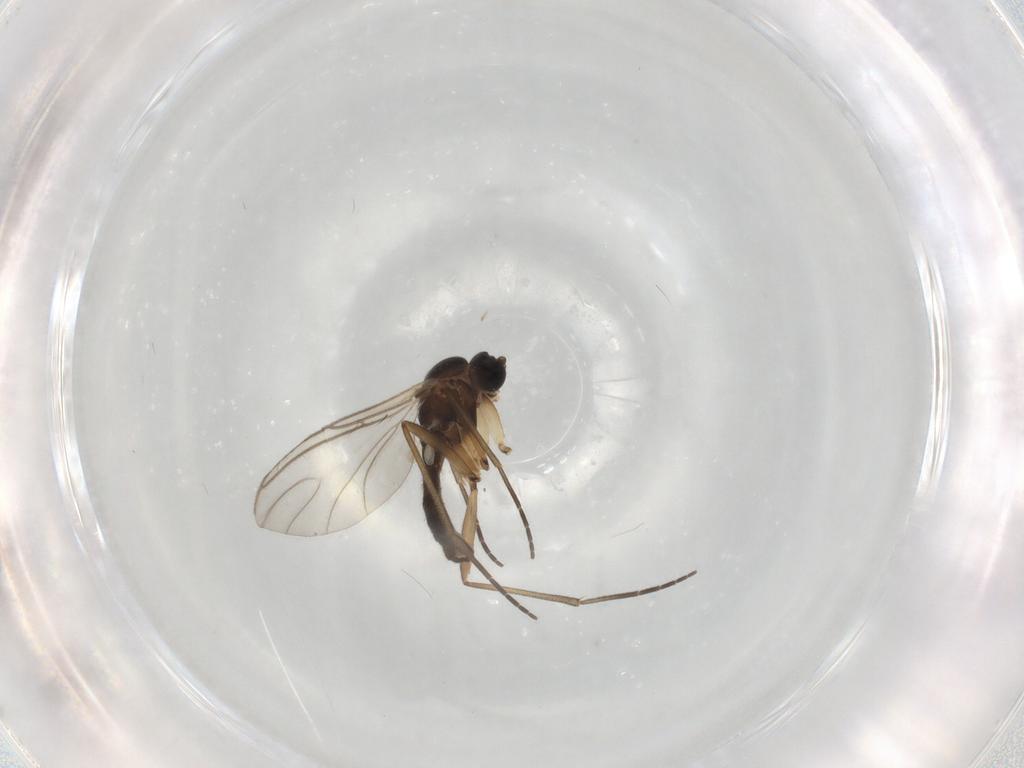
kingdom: Animalia
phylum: Arthropoda
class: Insecta
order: Diptera
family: Sciaridae
